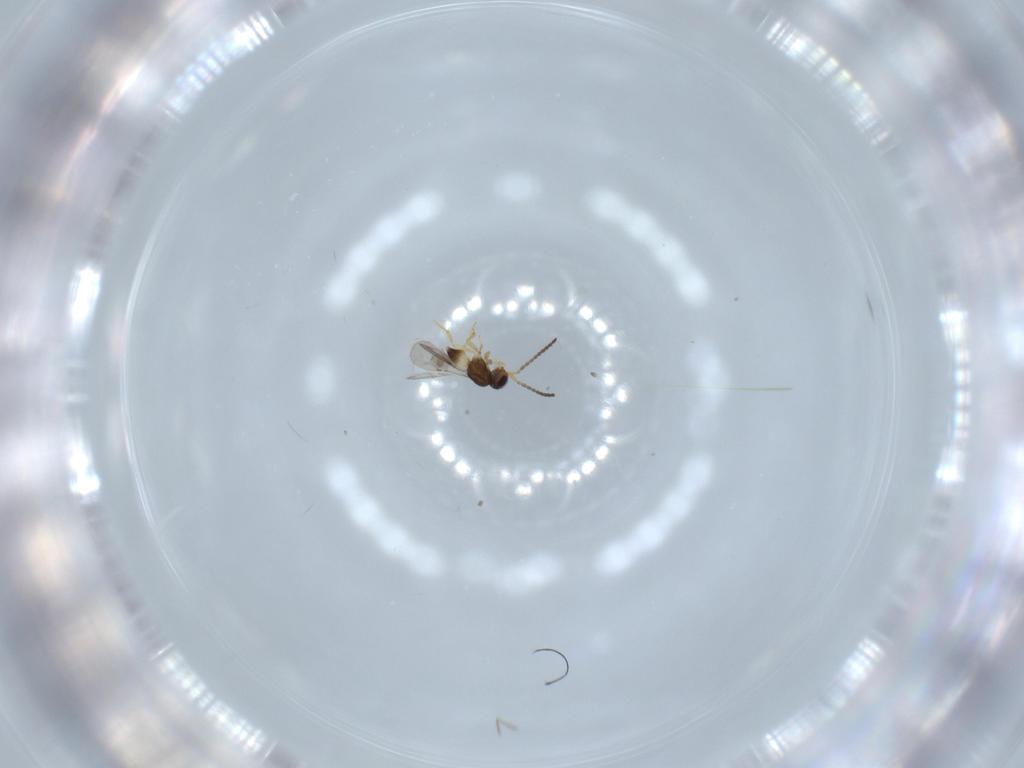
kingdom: Animalia
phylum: Arthropoda
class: Insecta
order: Hymenoptera
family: Ceraphronidae
